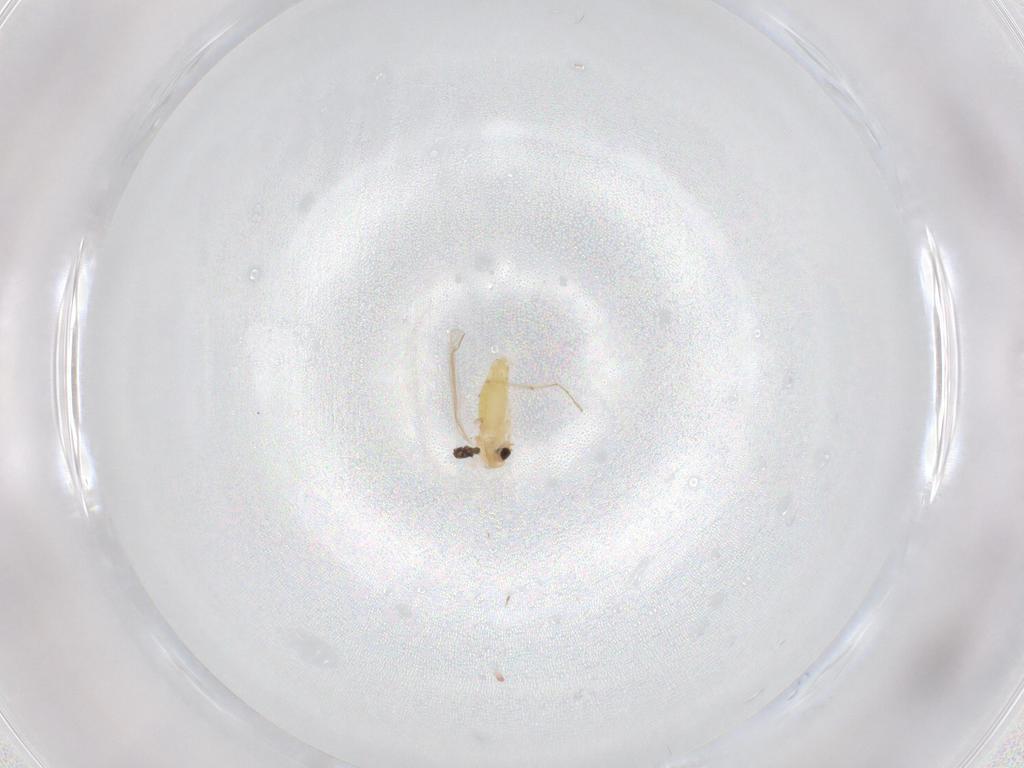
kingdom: Animalia
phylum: Arthropoda
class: Insecta
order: Diptera
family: Chironomidae
